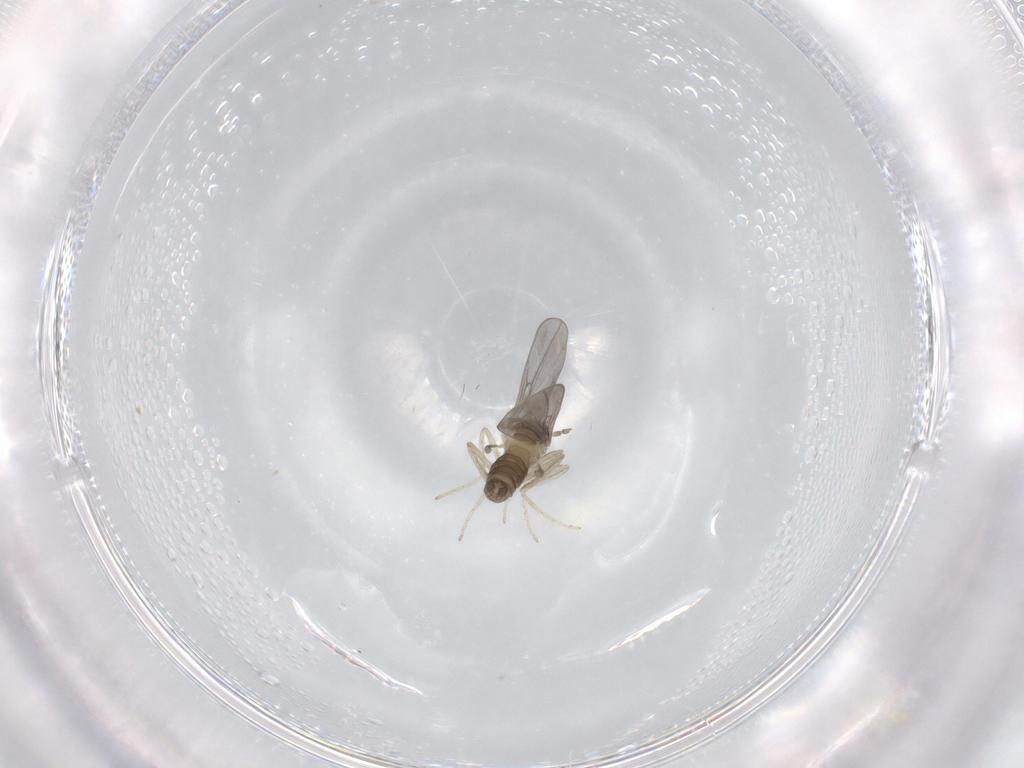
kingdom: Animalia
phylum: Arthropoda
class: Insecta
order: Diptera
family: Cecidomyiidae
